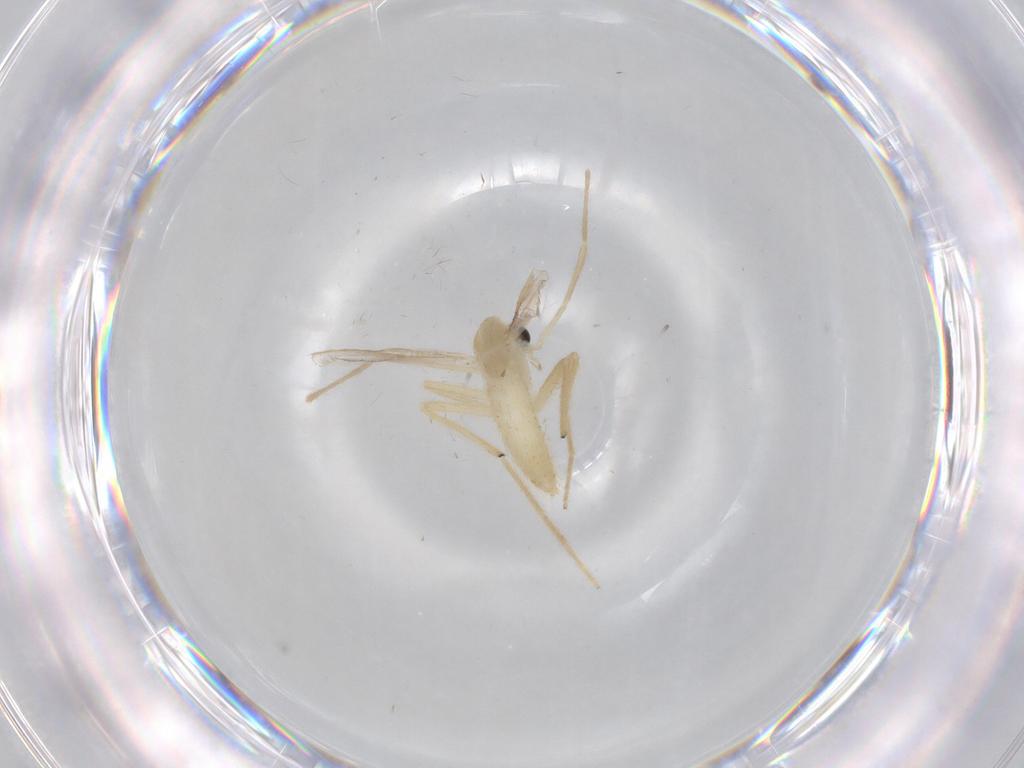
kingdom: Animalia
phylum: Arthropoda
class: Insecta
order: Diptera
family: Chironomidae
